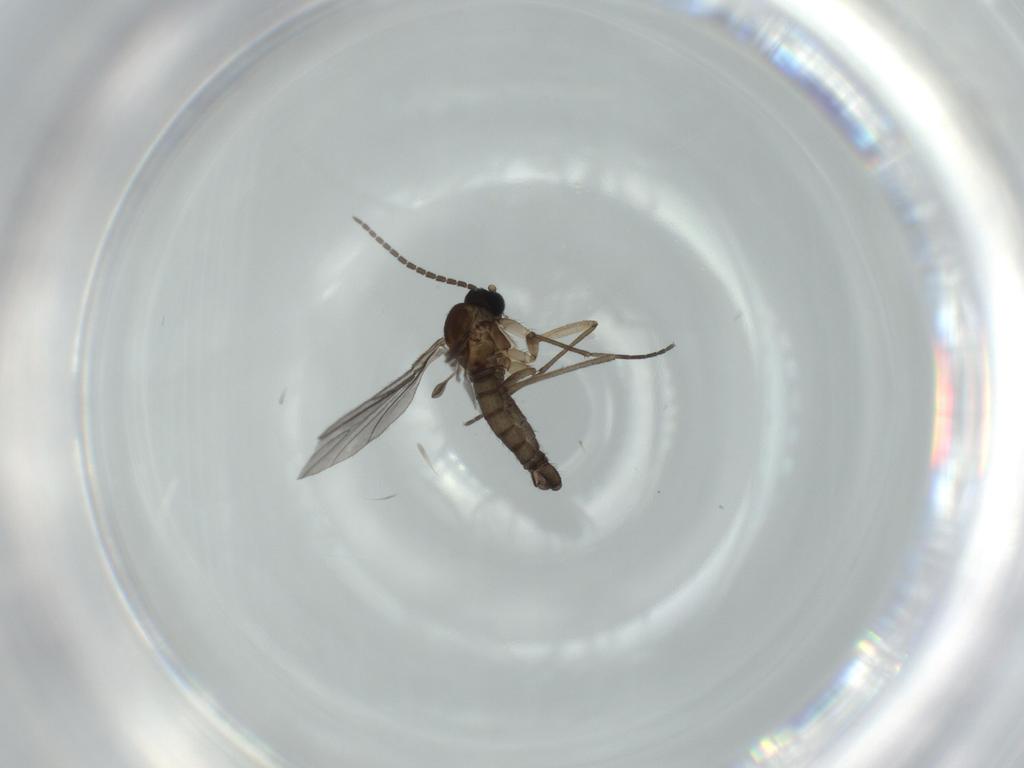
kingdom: Animalia
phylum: Arthropoda
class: Insecta
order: Diptera
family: Sciaridae
